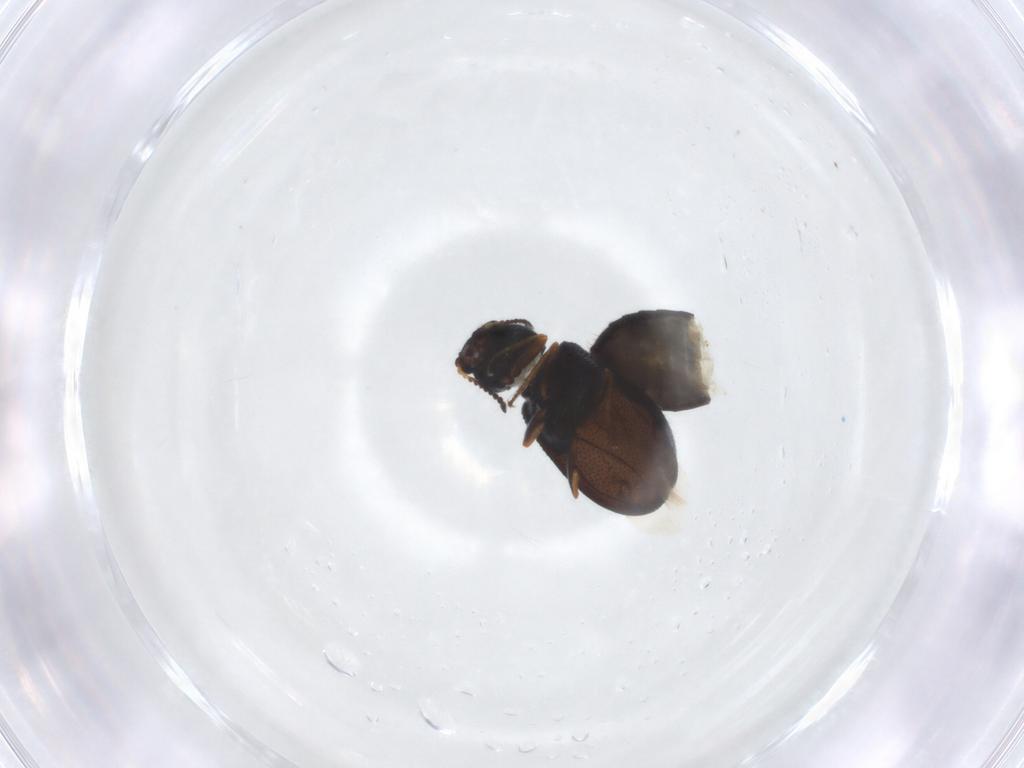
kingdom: Animalia
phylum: Arthropoda
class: Insecta
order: Coleoptera
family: Melyridae
